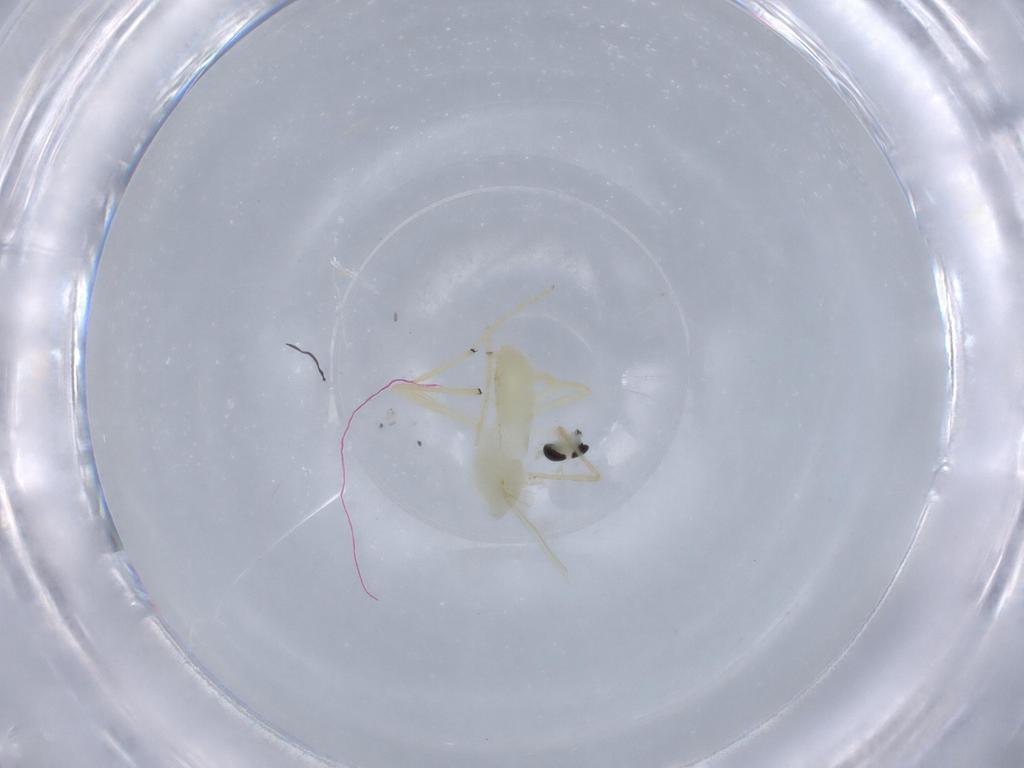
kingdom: Animalia
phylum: Arthropoda
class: Insecta
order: Diptera
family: Chironomidae
